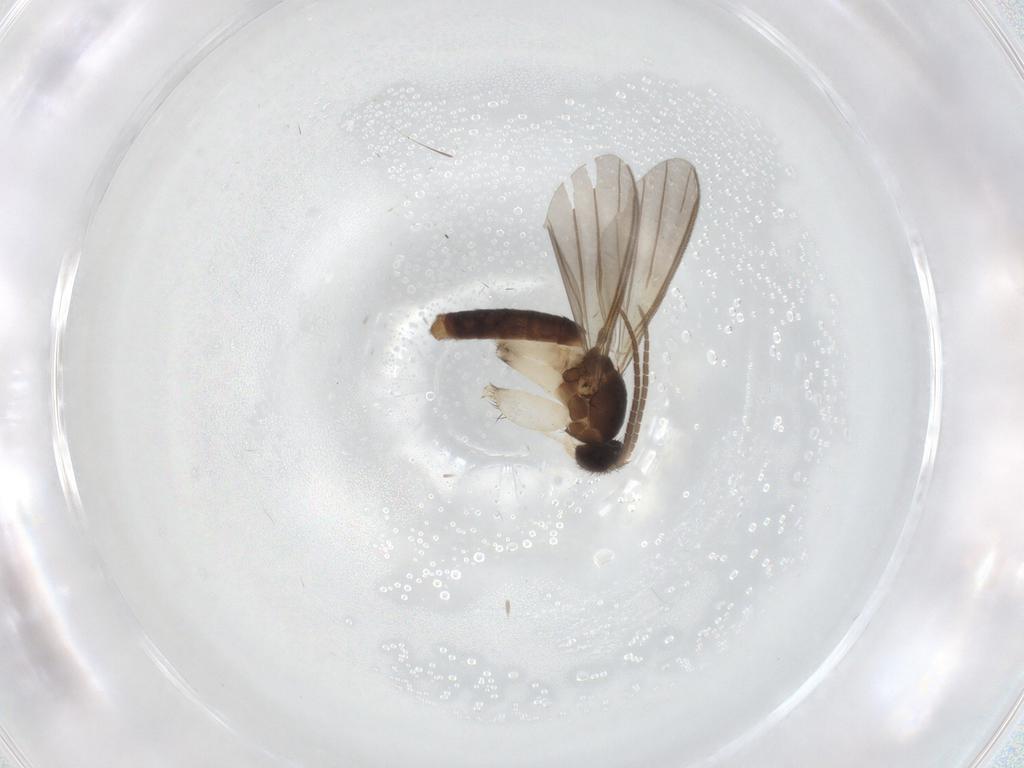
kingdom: Animalia
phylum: Arthropoda
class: Insecta
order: Diptera
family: Mycetophilidae
